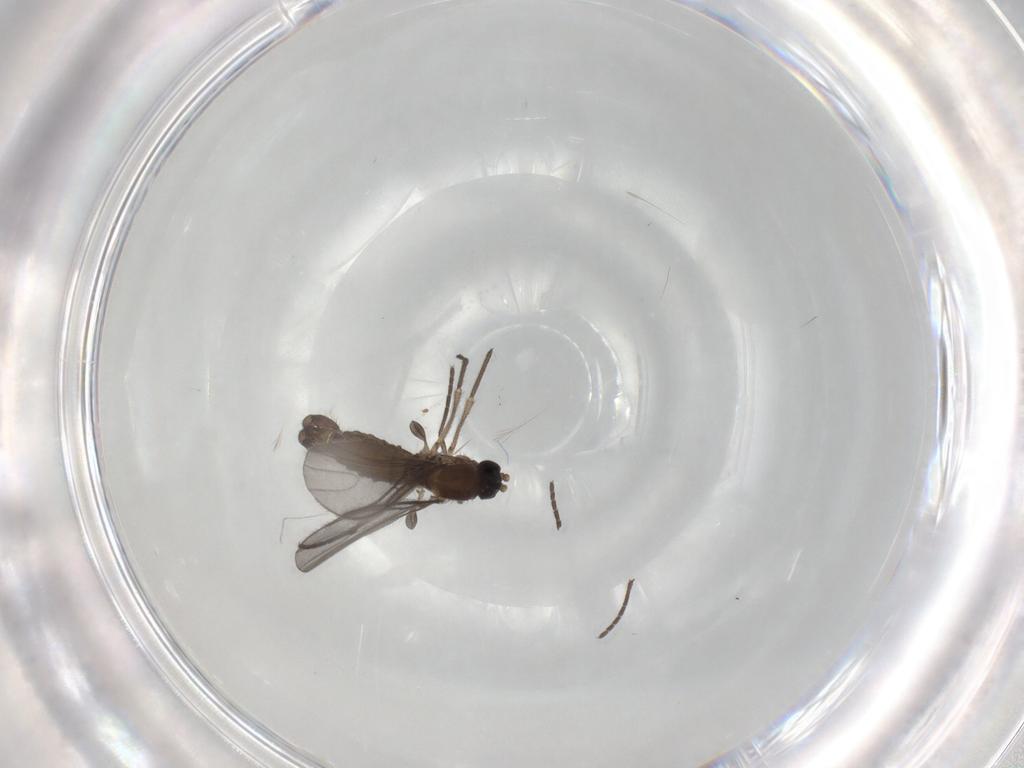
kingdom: Animalia
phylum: Arthropoda
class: Insecta
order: Diptera
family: Sciaridae
